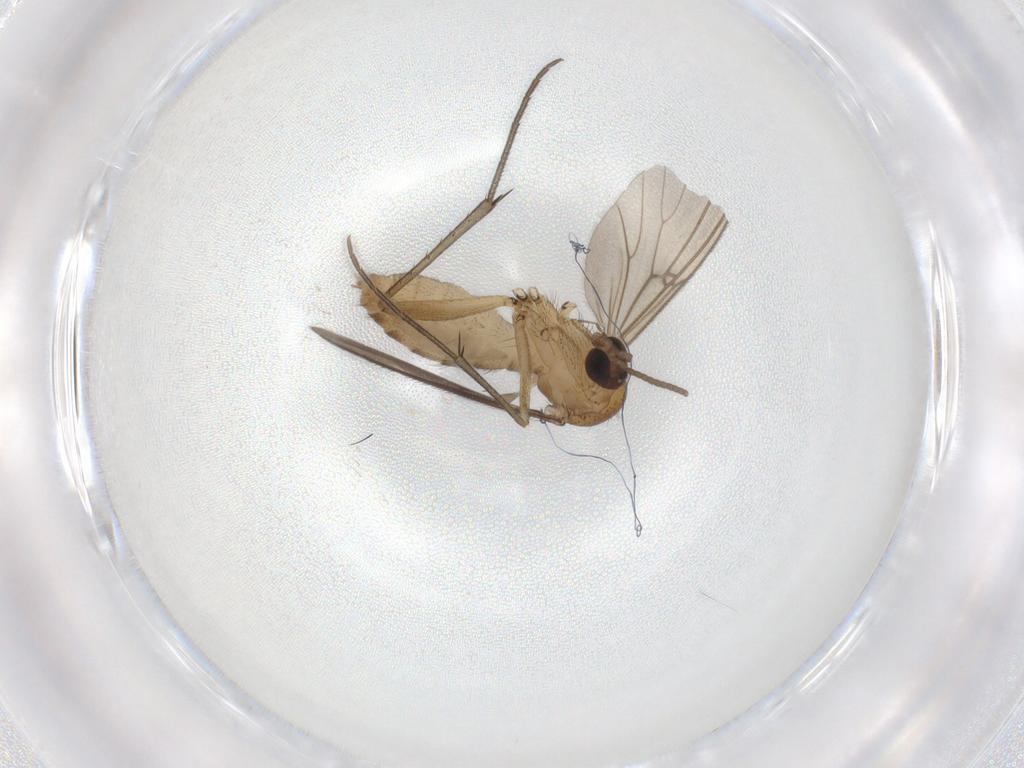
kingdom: Animalia
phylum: Arthropoda
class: Insecta
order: Diptera
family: Mycetophilidae
